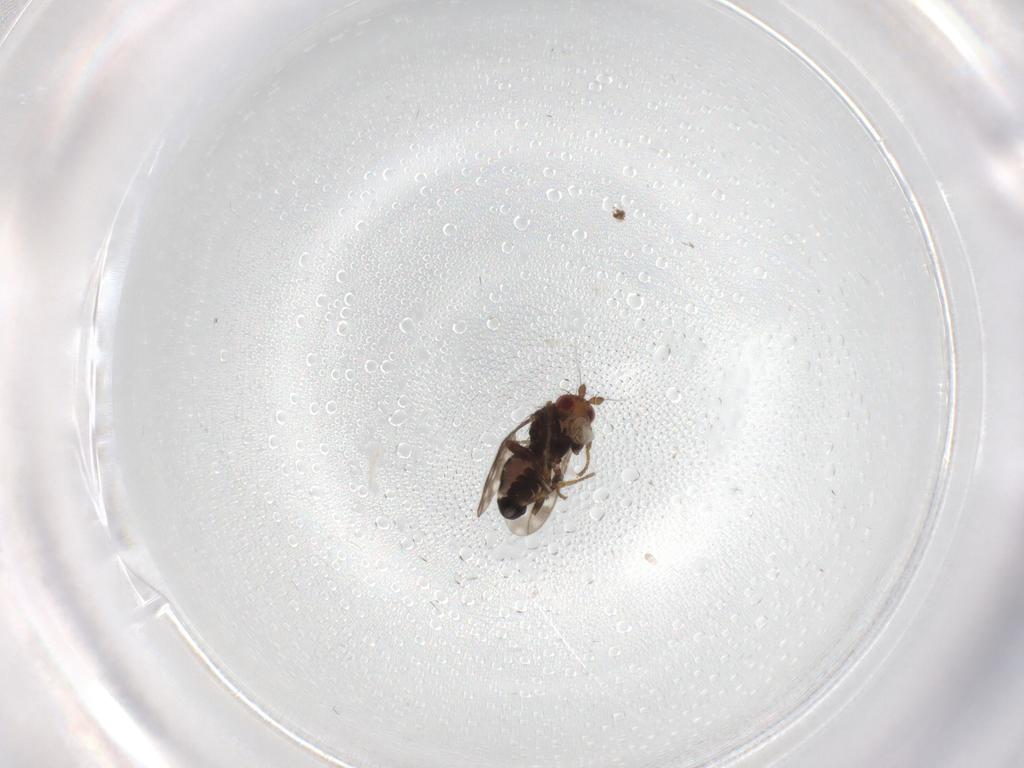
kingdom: Animalia
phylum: Arthropoda
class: Insecta
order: Diptera
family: Sphaeroceridae
